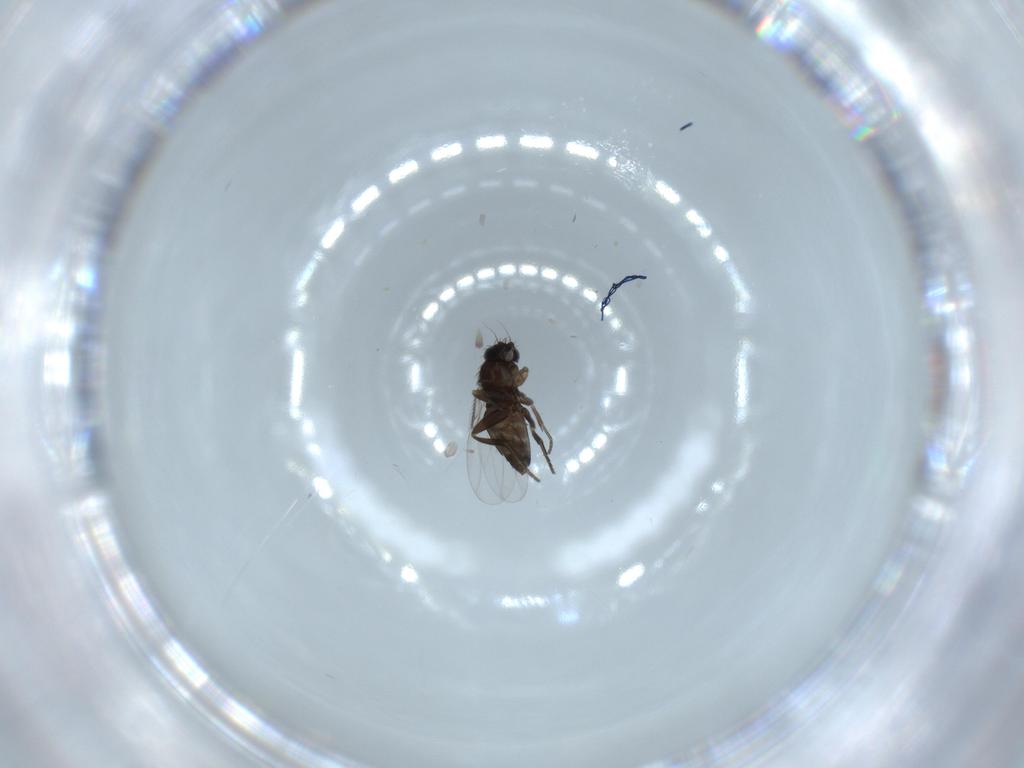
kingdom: Animalia
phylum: Arthropoda
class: Insecta
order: Diptera
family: Phoridae
